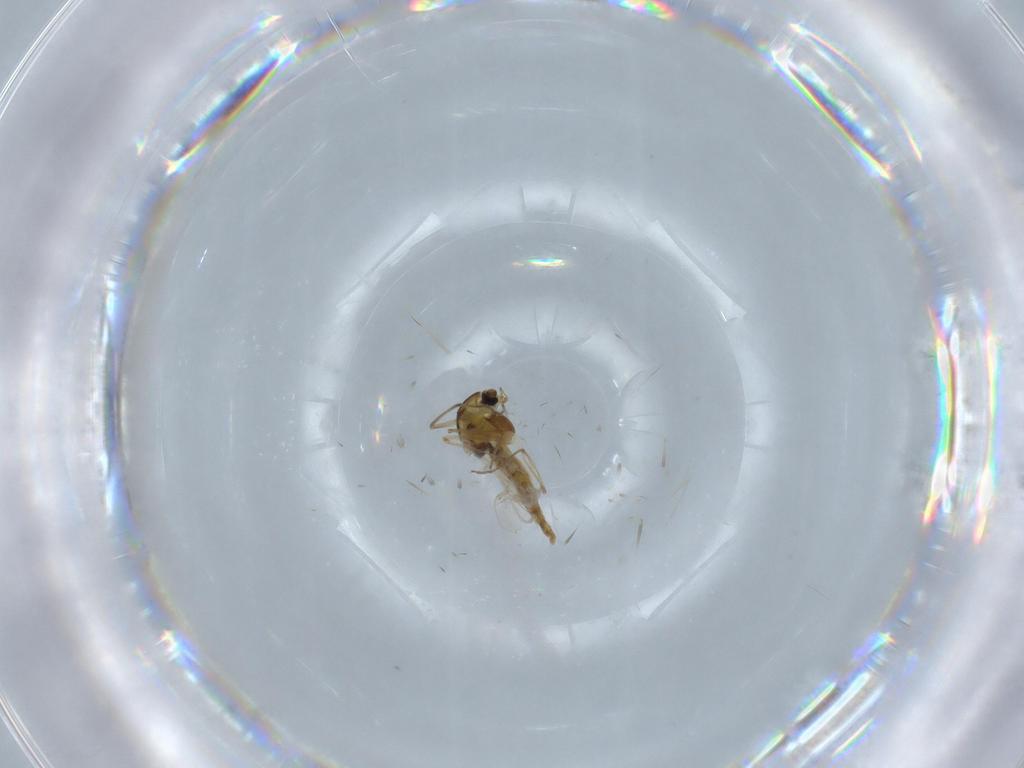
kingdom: Animalia
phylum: Arthropoda
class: Insecta
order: Diptera
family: Chironomidae
